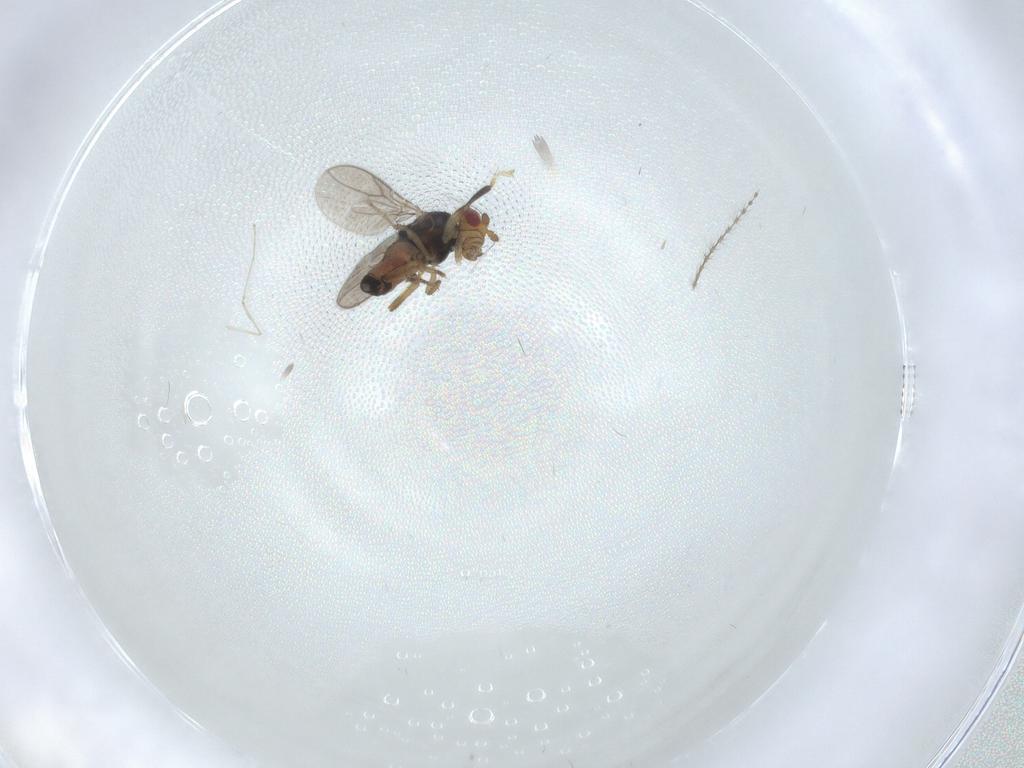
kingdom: Animalia
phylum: Arthropoda
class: Insecta
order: Diptera
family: Sphaeroceridae
